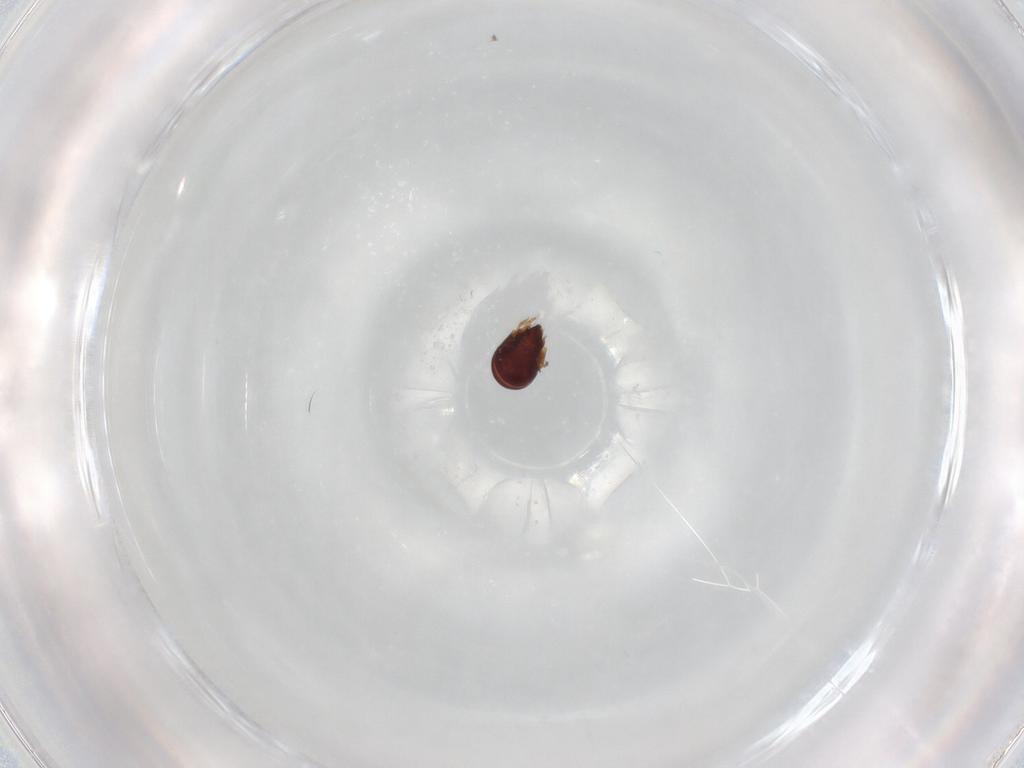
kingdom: Animalia
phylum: Arthropoda
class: Arachnida
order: Sarcoptiformes
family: Ceratozetidae
